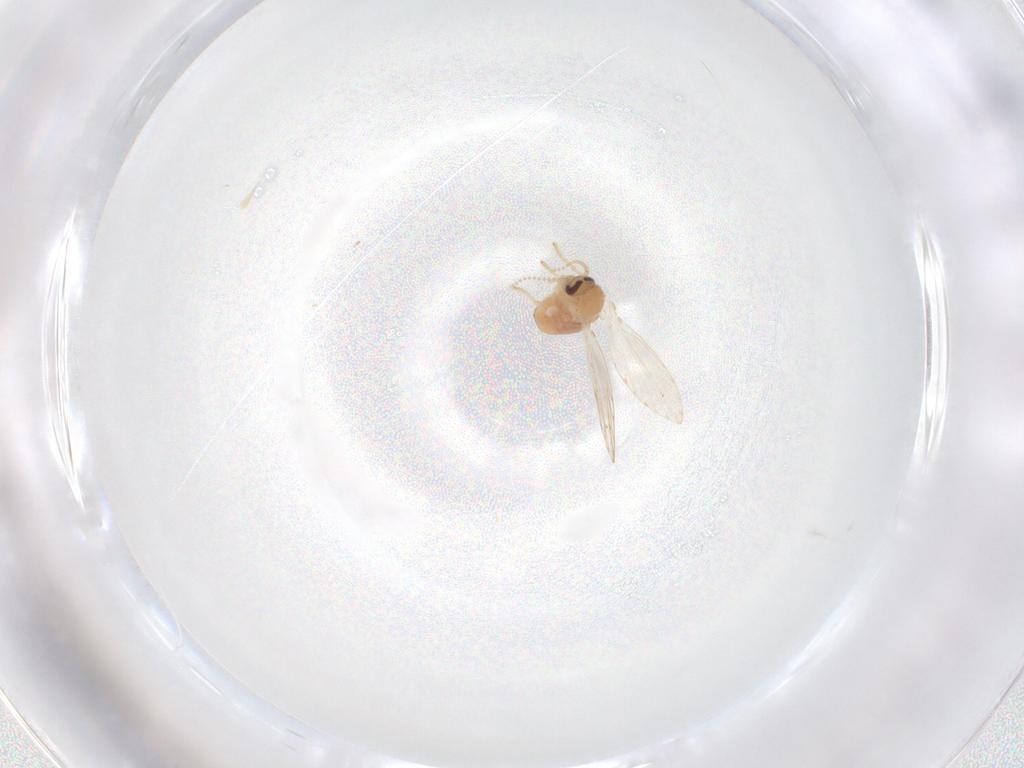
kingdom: Animalia
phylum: Arthropoda
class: Insecta
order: Diptera
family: Psychodidae
